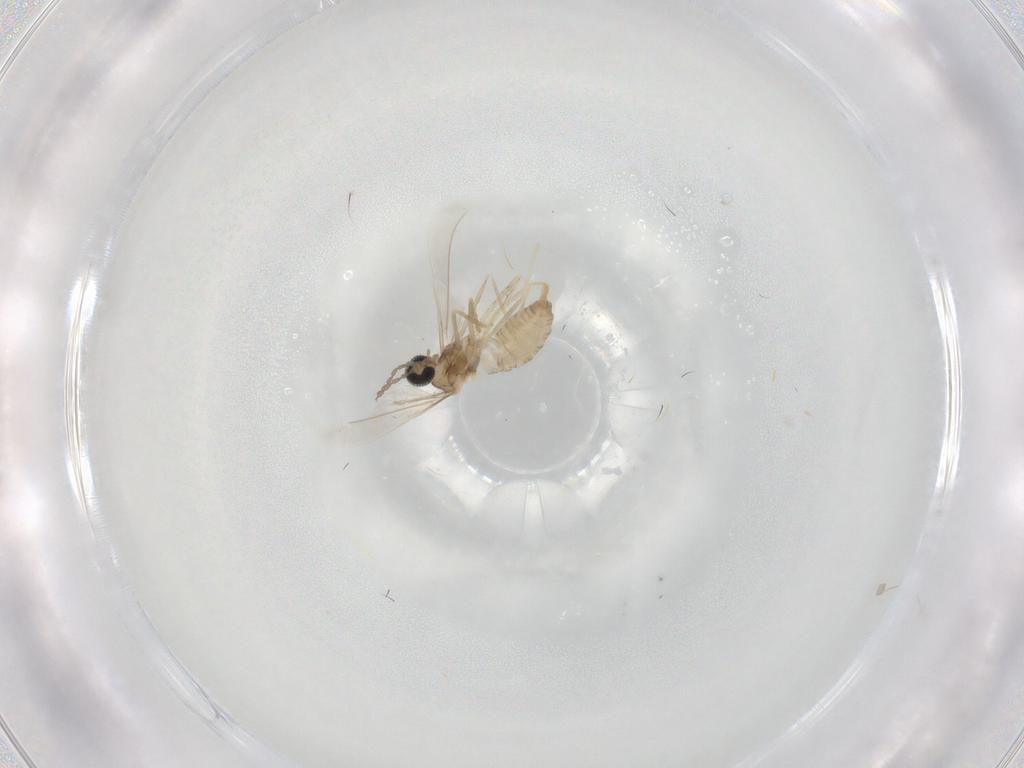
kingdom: Animalia
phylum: Arthropoda
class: Insecta
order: Diptera
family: Cecidomyiidae
